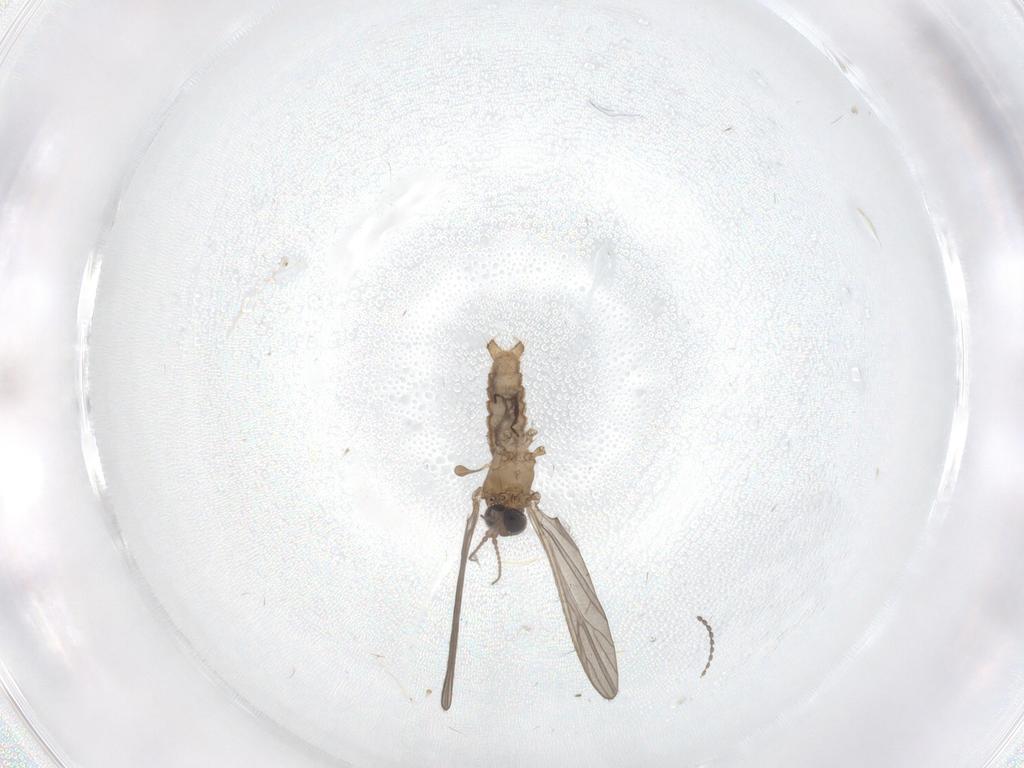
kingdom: Animalia
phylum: Arthropoda
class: Insecta
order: Diptera
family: Limoniidae
